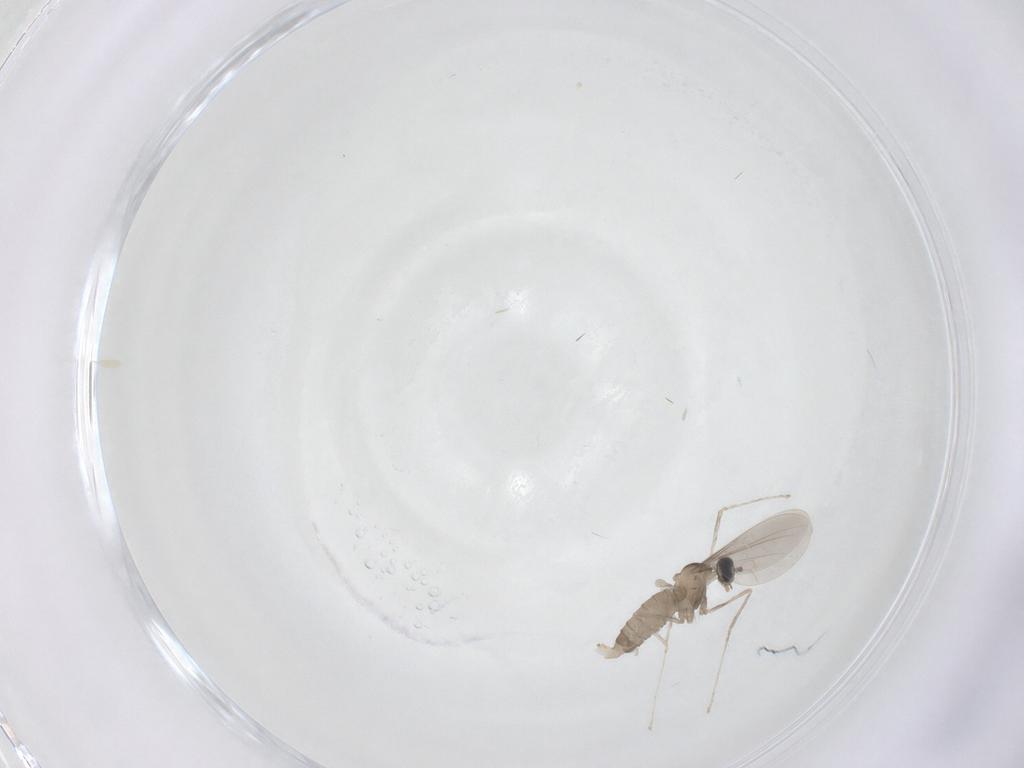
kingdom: Animalia
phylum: Arthropoda
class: Insecta
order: Diptera
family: Cecidomyiidae
